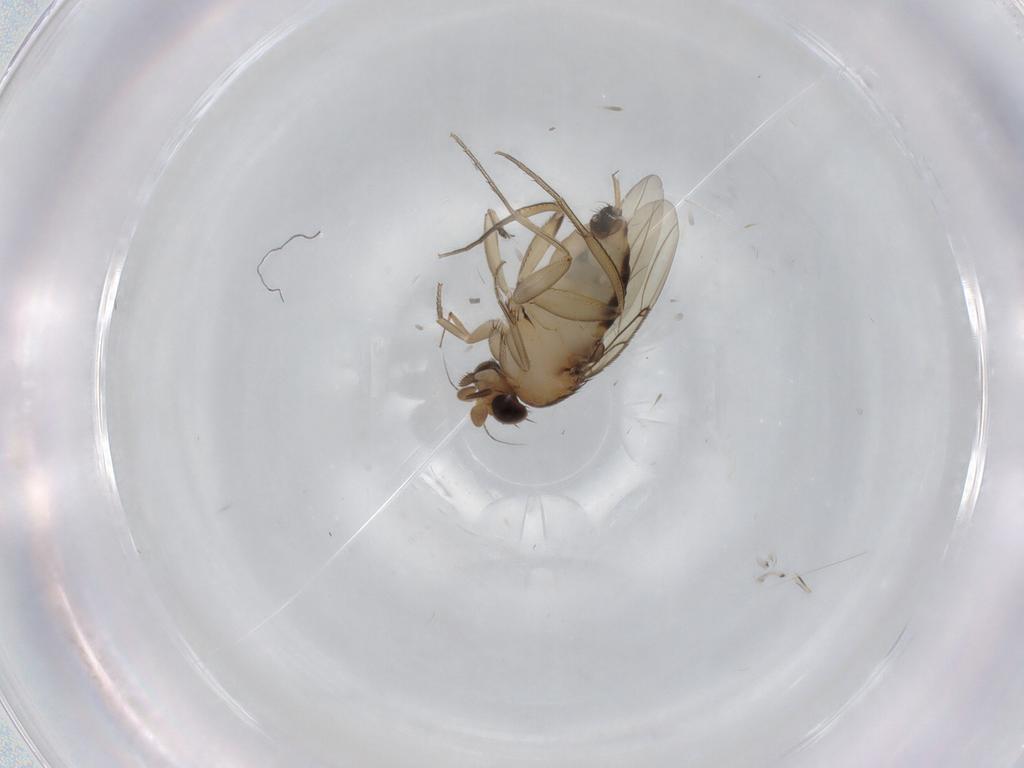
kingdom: Animalia
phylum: Arthropoda
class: Insecta
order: Diptera
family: Phoridae
